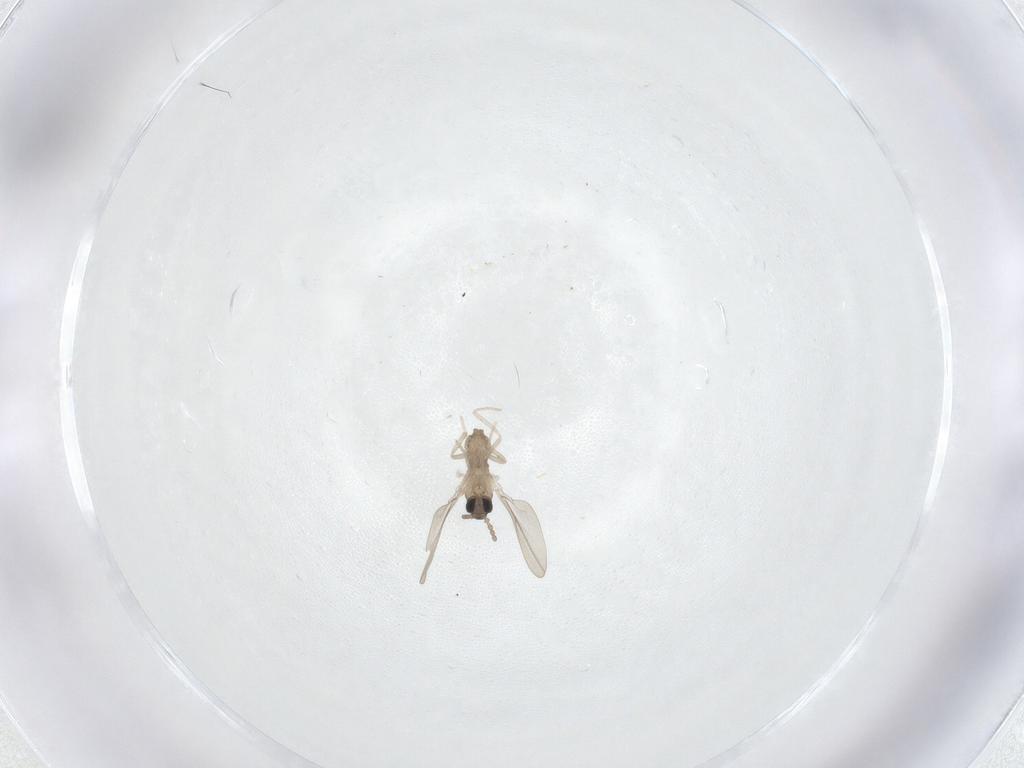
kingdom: Animalia
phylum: Arthropoda
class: Insecta
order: Diptera
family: Cecidomyiidae
